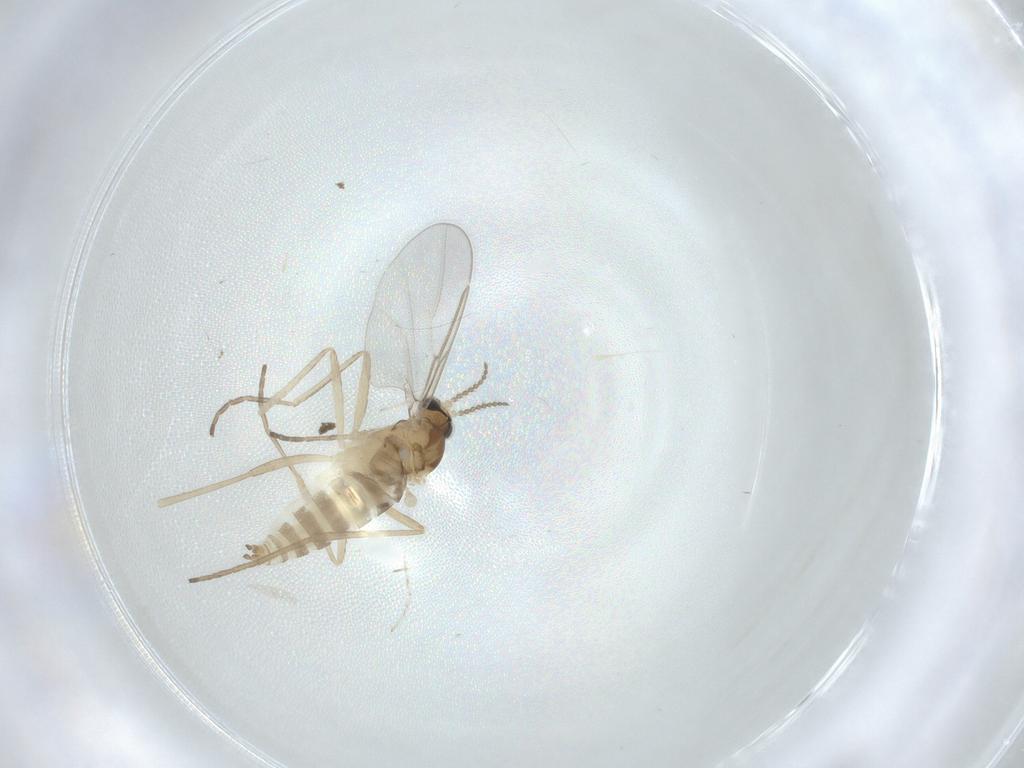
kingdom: Animalia
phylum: Arthropoda
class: Insecta
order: Diptera
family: Cecidomyiidae
